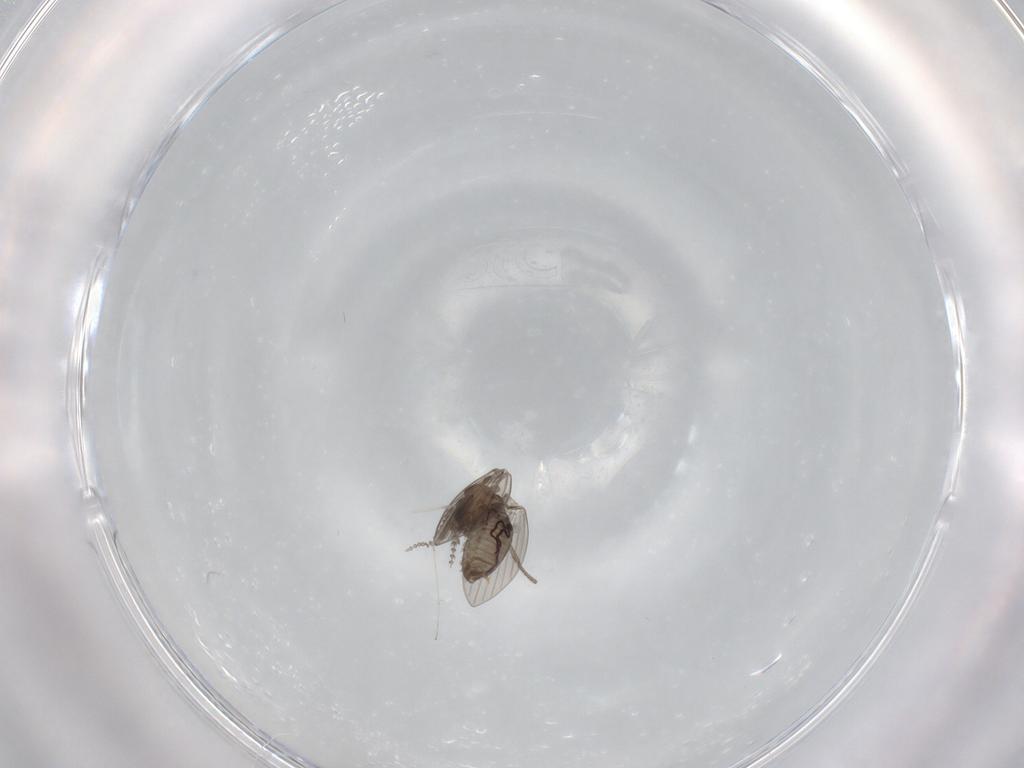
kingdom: Animalia
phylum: Arthropoda
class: Insecta
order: Diptera
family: Psychodidae
